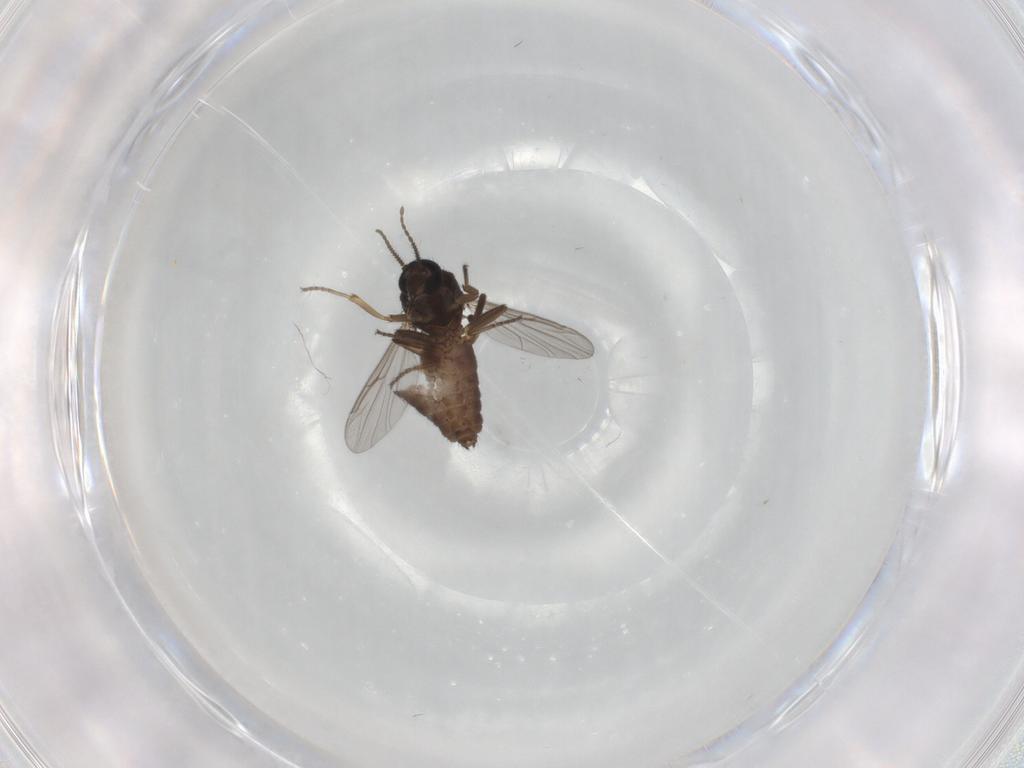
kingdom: Animalia
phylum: Arthropoda
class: Insecta
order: Diptera
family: Ceratopogonidae
